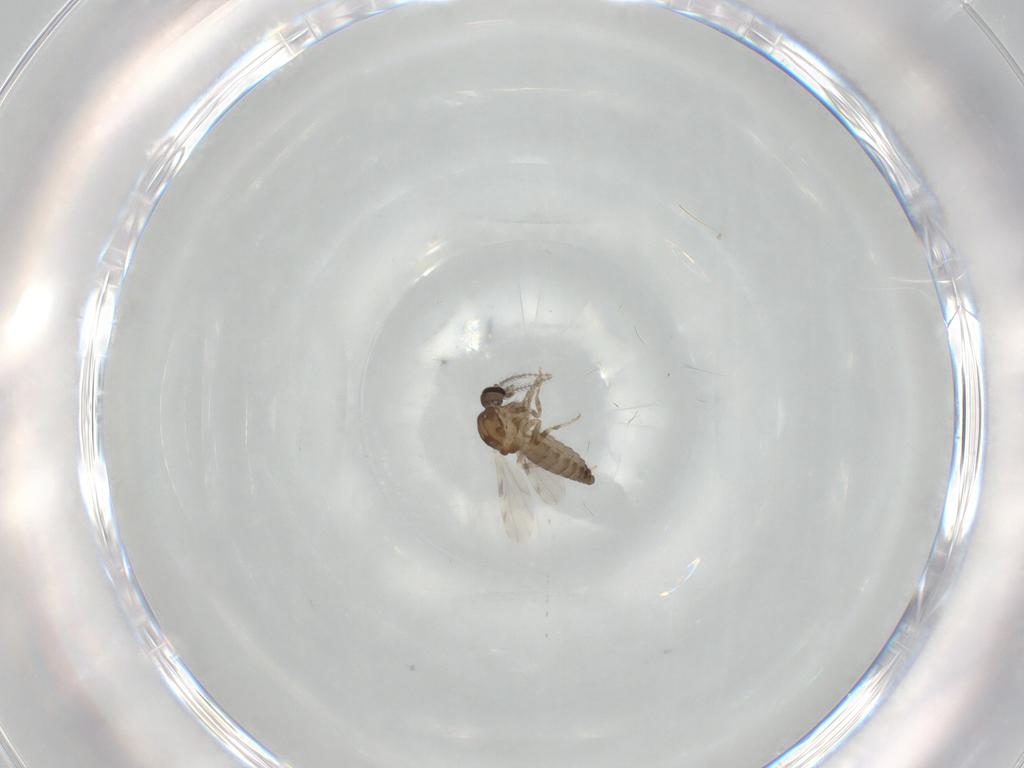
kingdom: Animalia
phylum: Arthropoda
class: Insecta
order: Diptera
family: Ceratopogonidae
